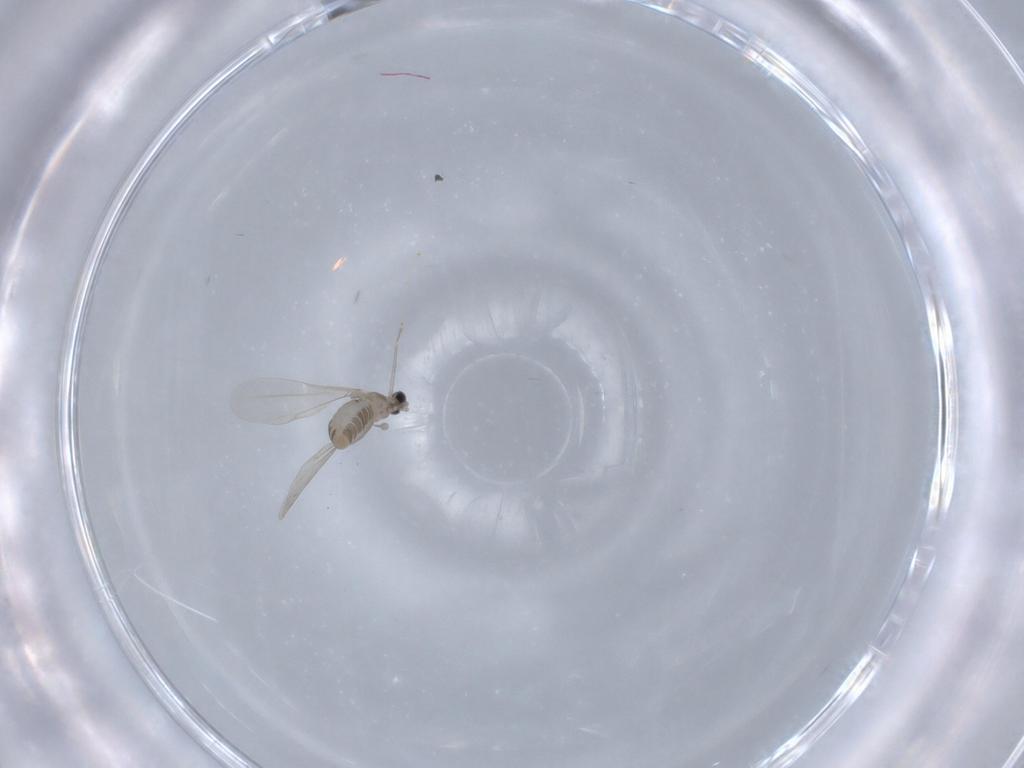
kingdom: Animalia
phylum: Arthropoda
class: Insecta
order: Diptera
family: Cecidomyiidae
